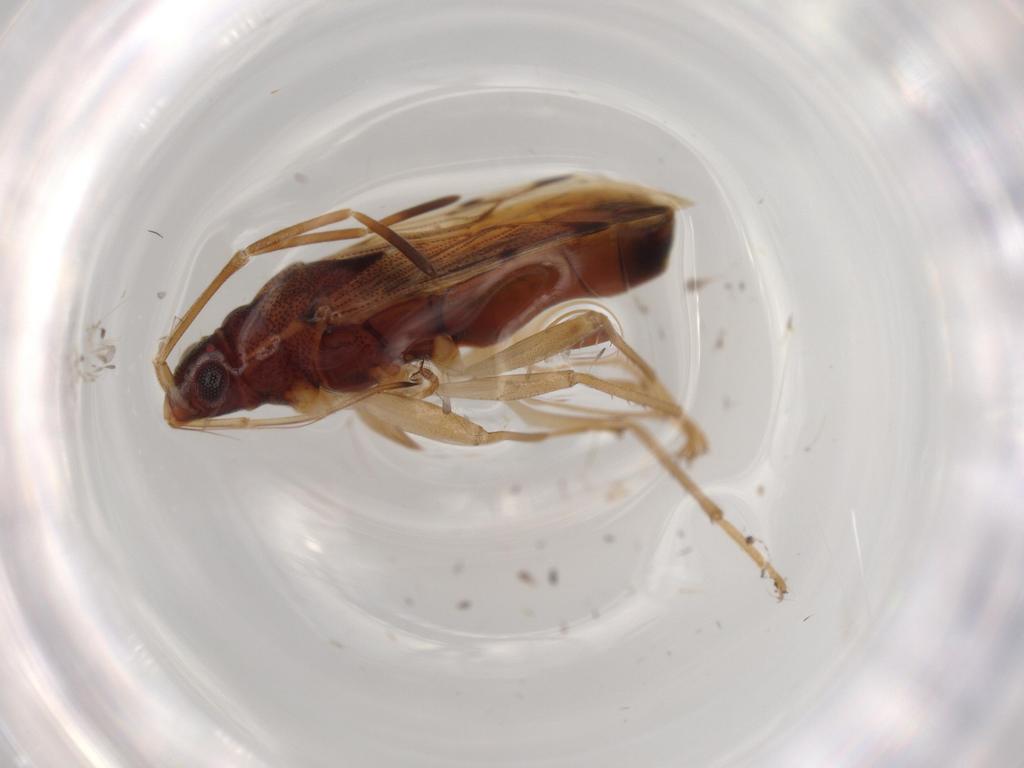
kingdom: Animalia
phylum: Arthropoda
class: Insecta
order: Hemiptera
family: Rhyparochromidae
